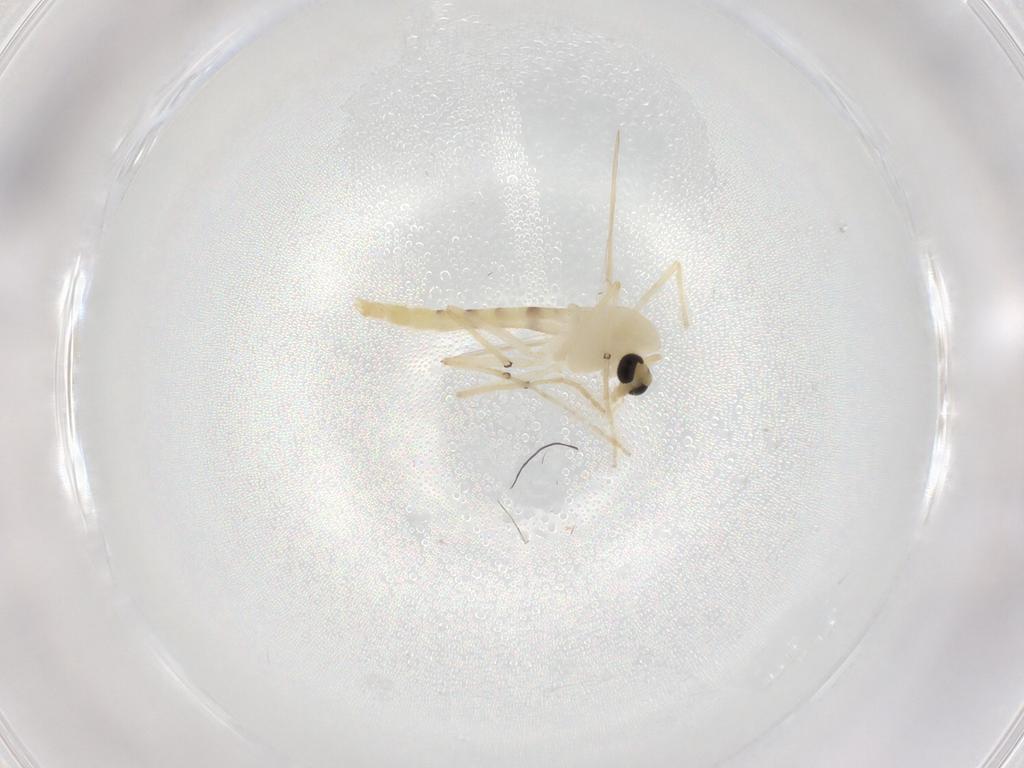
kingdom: Animalia
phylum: Arthropoda
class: Insecta
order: Diptera
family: Chironomidae
